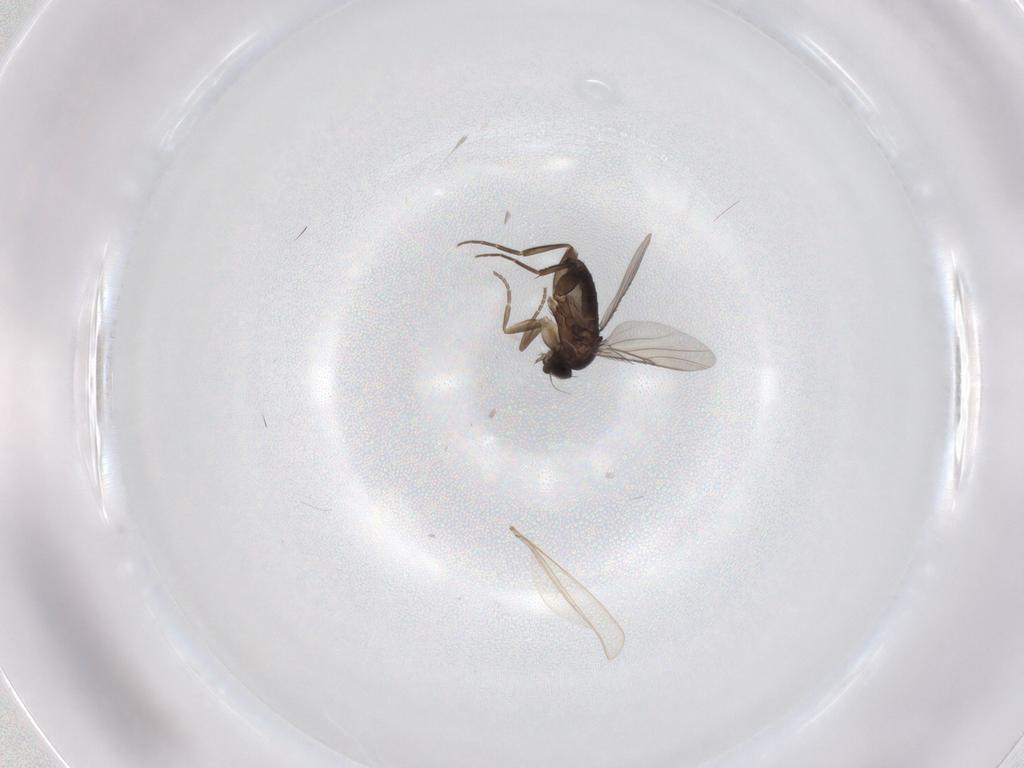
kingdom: Animalia
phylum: Arthropoda
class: Insecta
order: Diptera
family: Cecidomyiidae
